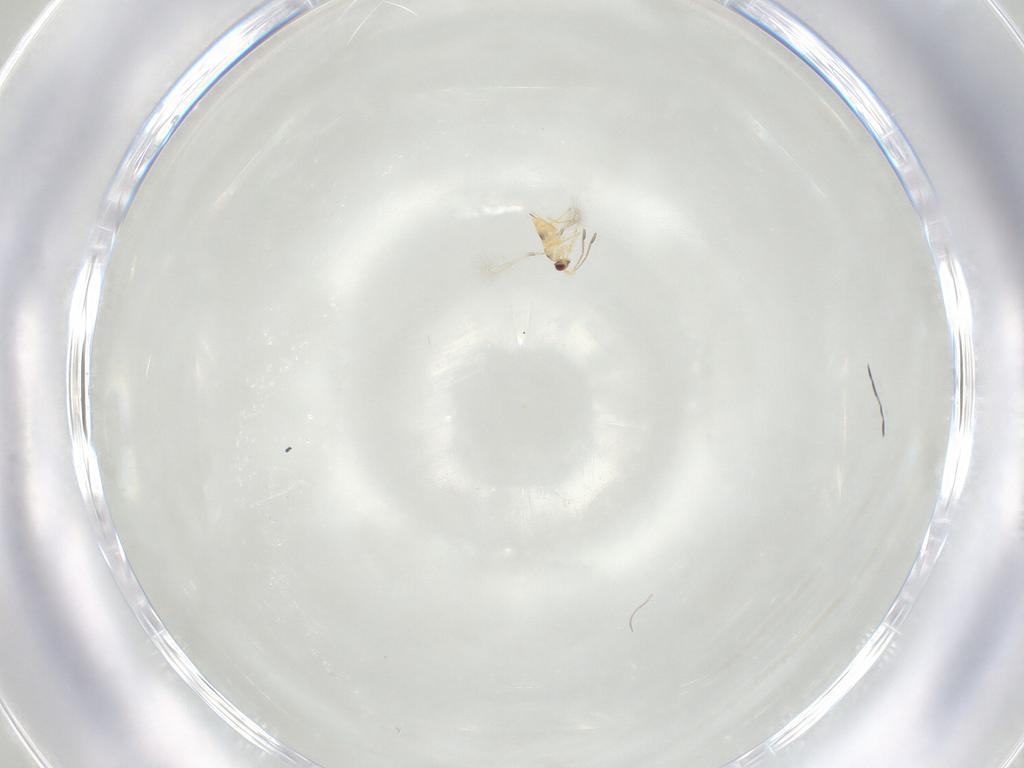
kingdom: Animalia
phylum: Arthropoda
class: Insecta
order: Hymenoptera
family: Mymaridae
